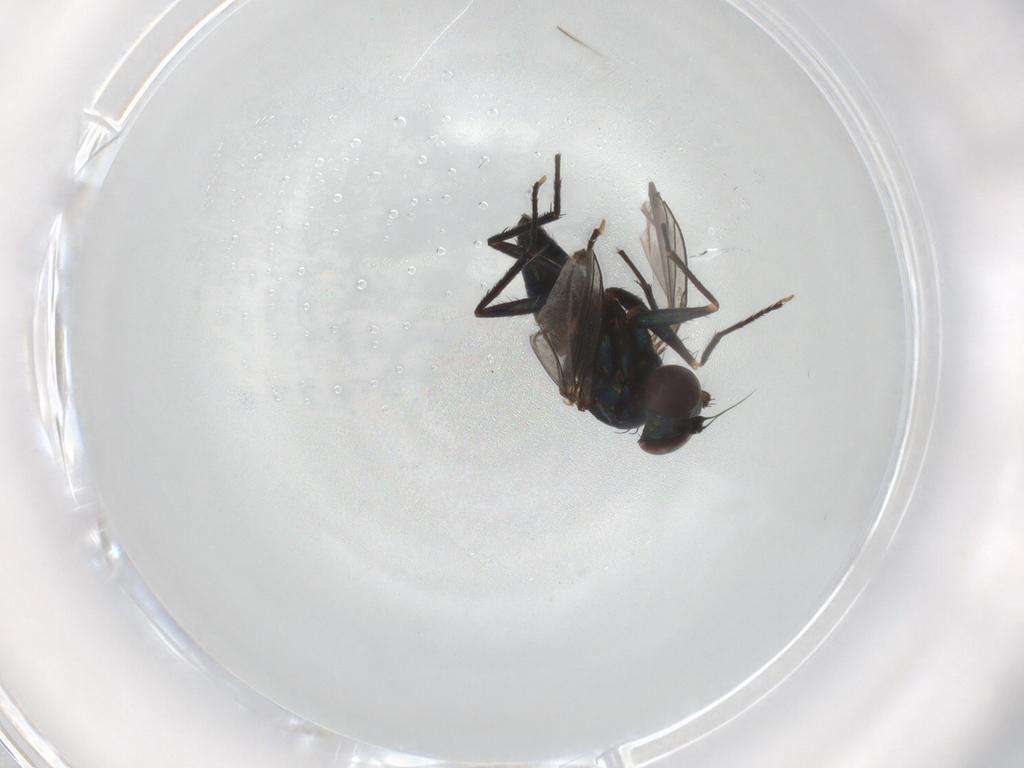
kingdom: Animalia
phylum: Arthropoda
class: Insecta
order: Diptera
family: Dolichopodidae
